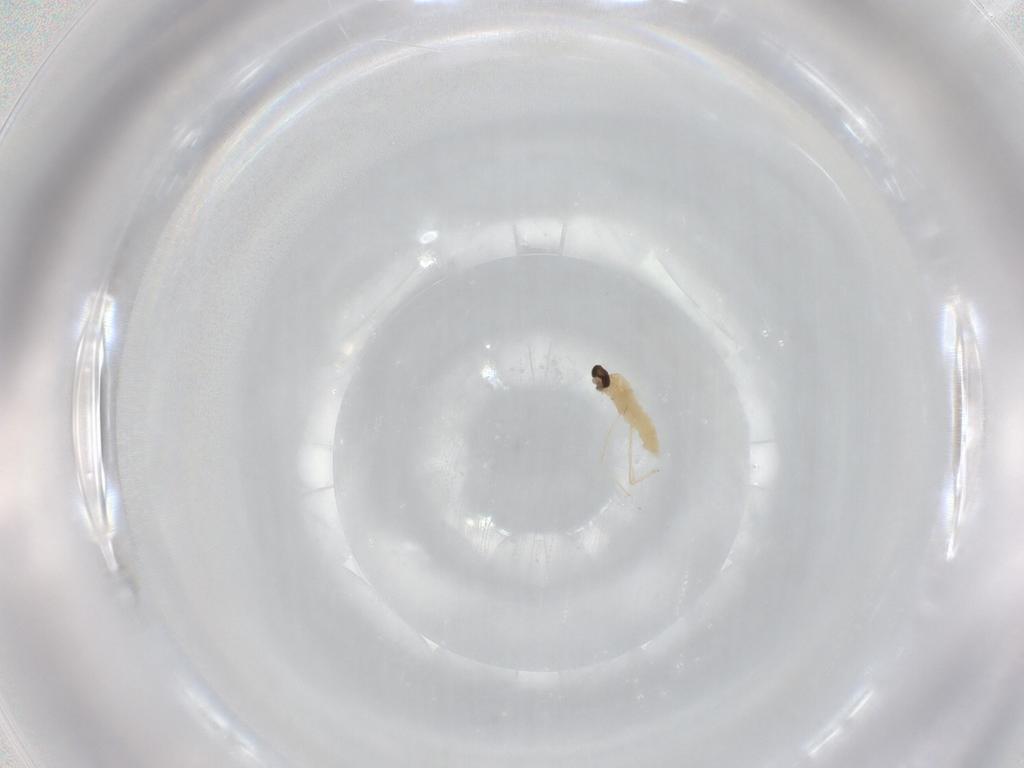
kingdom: Animalia
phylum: Arthropoda
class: Insecta
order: Diptera
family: Cecidomyiidae
